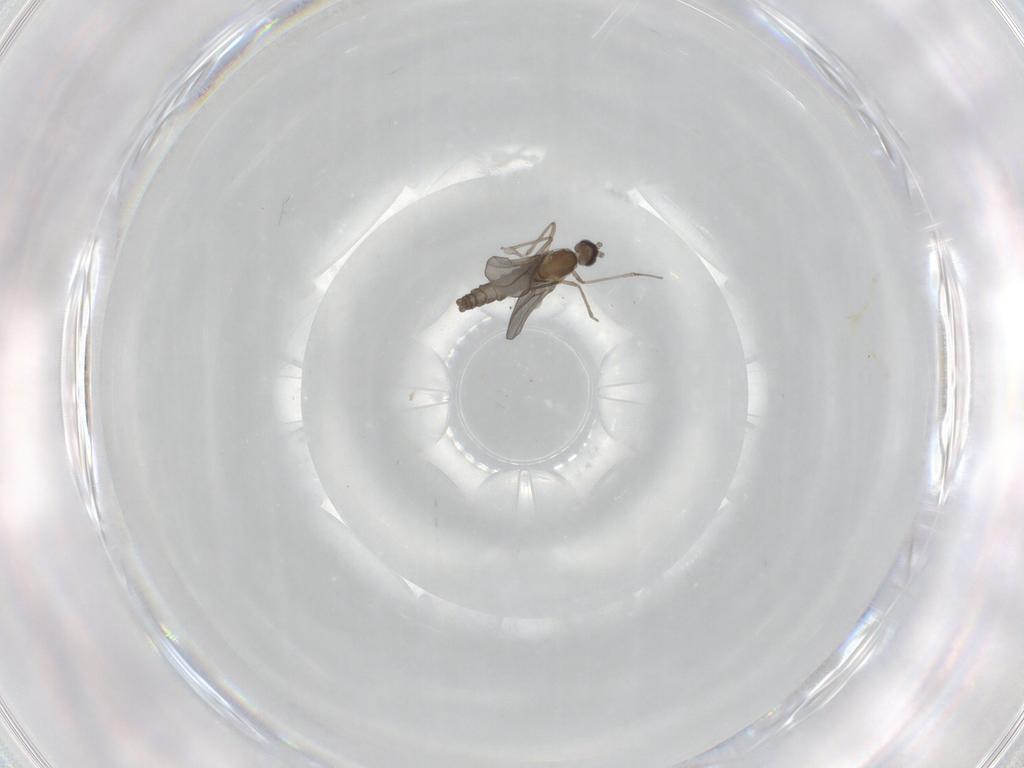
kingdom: Animalia
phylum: Arthropoda
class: Insecta
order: Diptera
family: Cecidomyiidae
